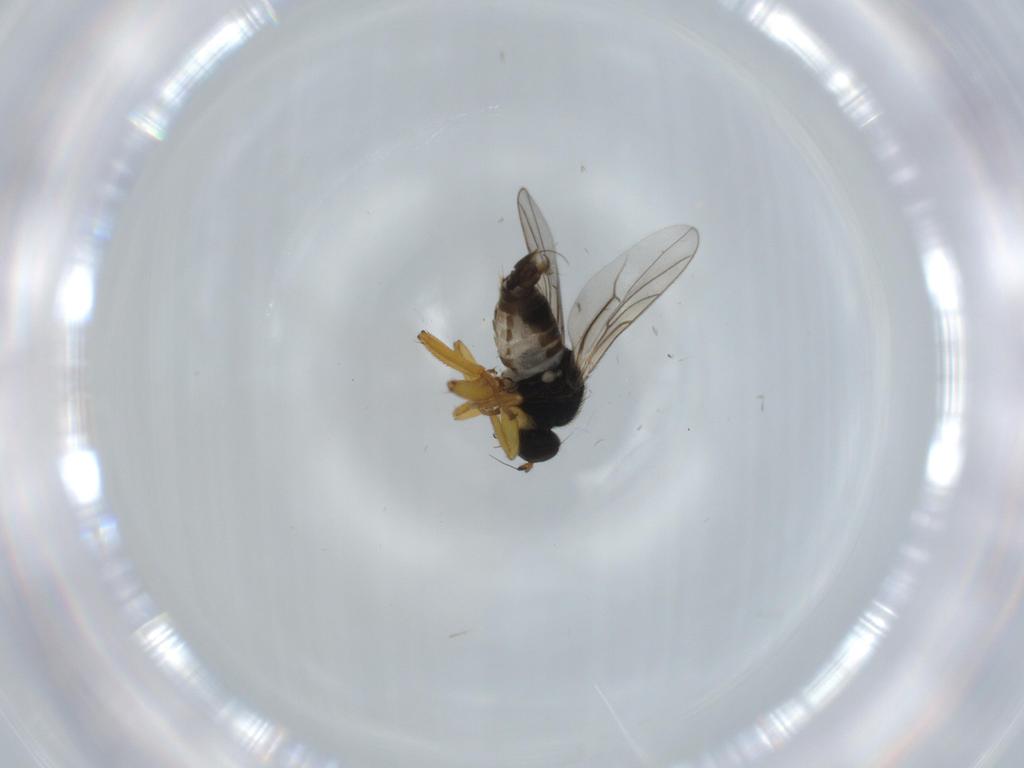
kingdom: Animalia
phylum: Arthropoda
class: Insecta
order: Diptera
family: Hybotidae
